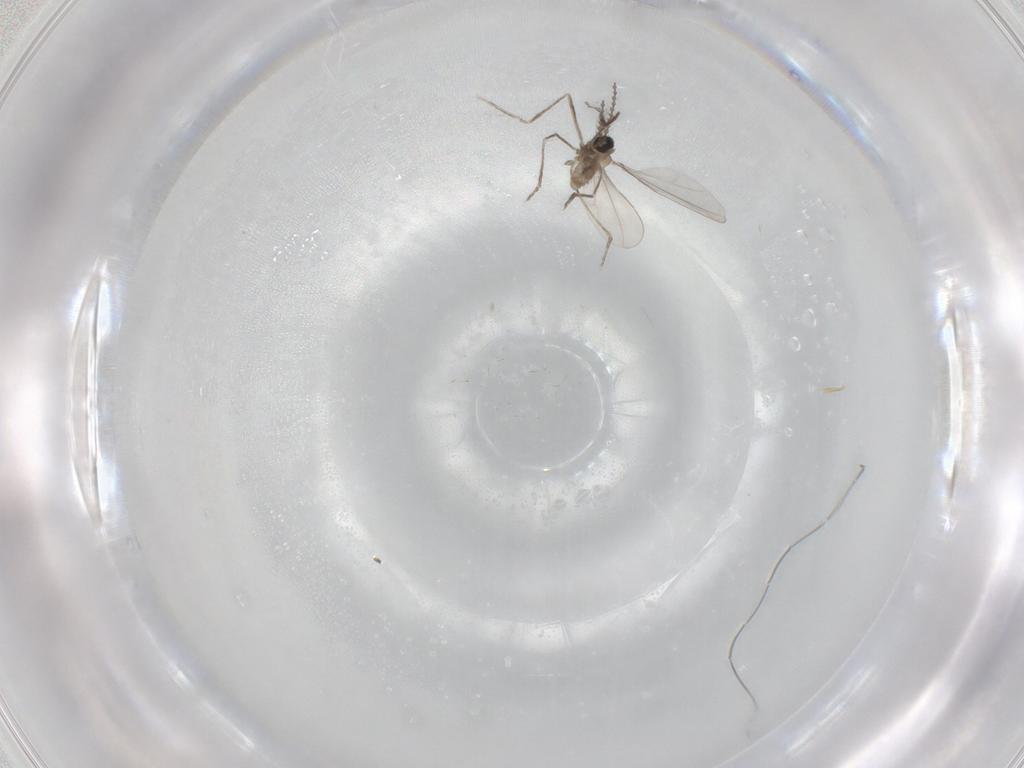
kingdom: Animalia
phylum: Arthropoda
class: Insecta
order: Diptera
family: Cecidomyiidae
